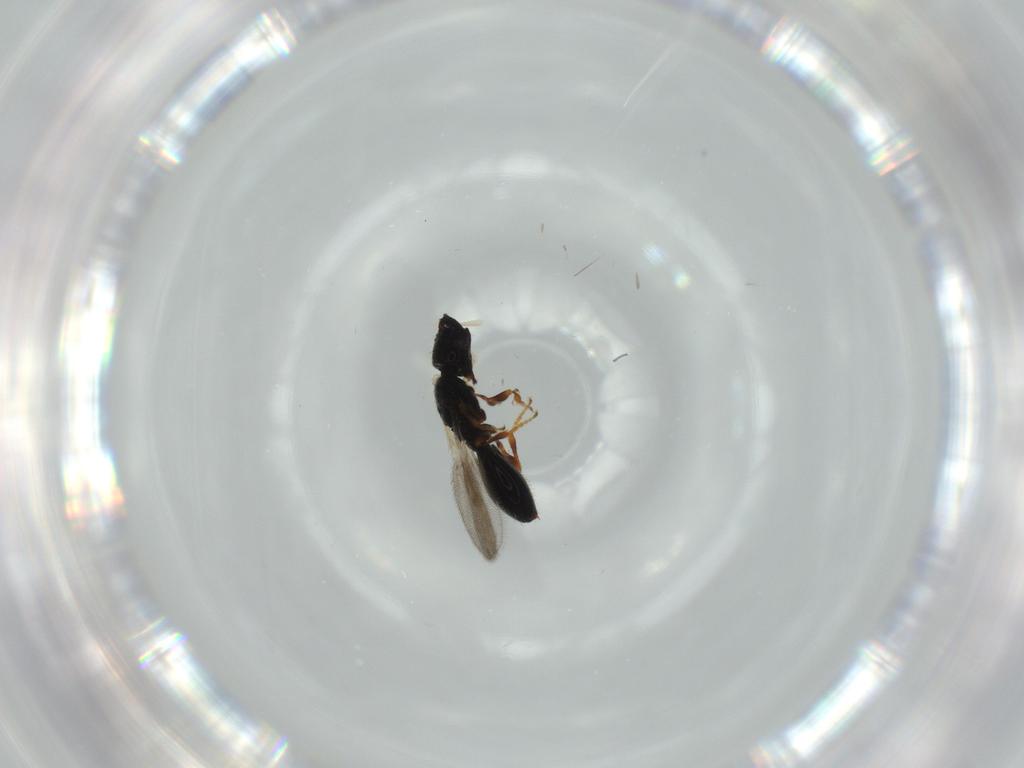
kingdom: Animalia
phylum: Arthropoda
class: Insecta
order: Hymenoptera
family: Diapriidae
